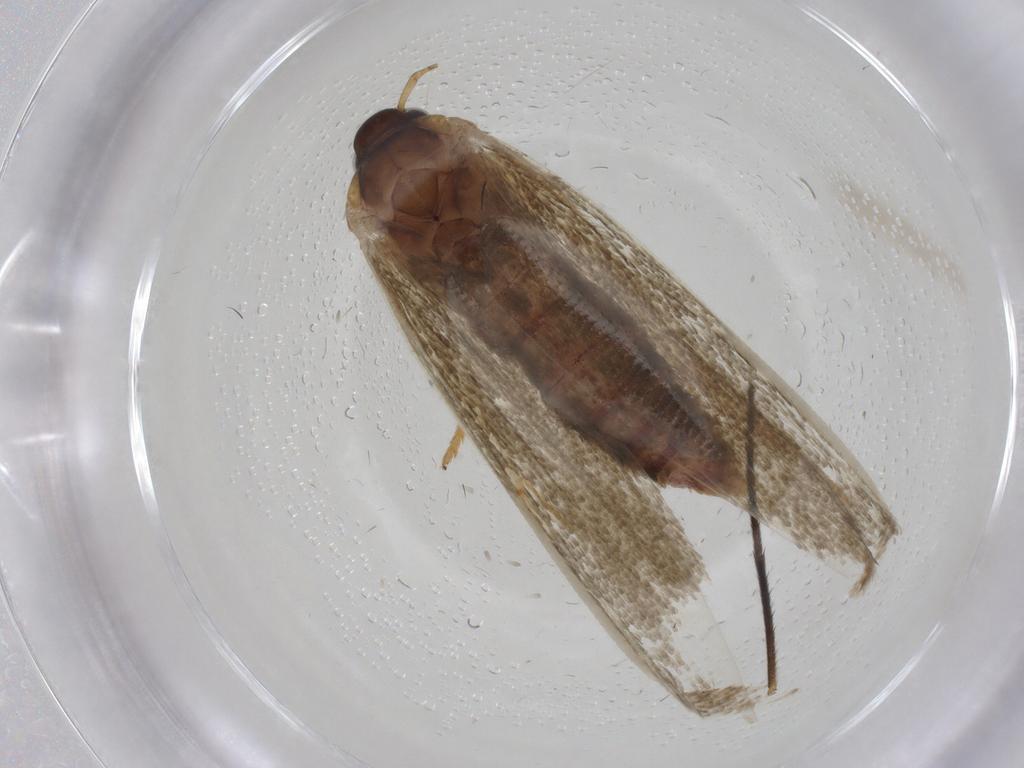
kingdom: Animalia
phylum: Arthropoda
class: Insecta
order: Lepidoptera
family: Blastobasidae
